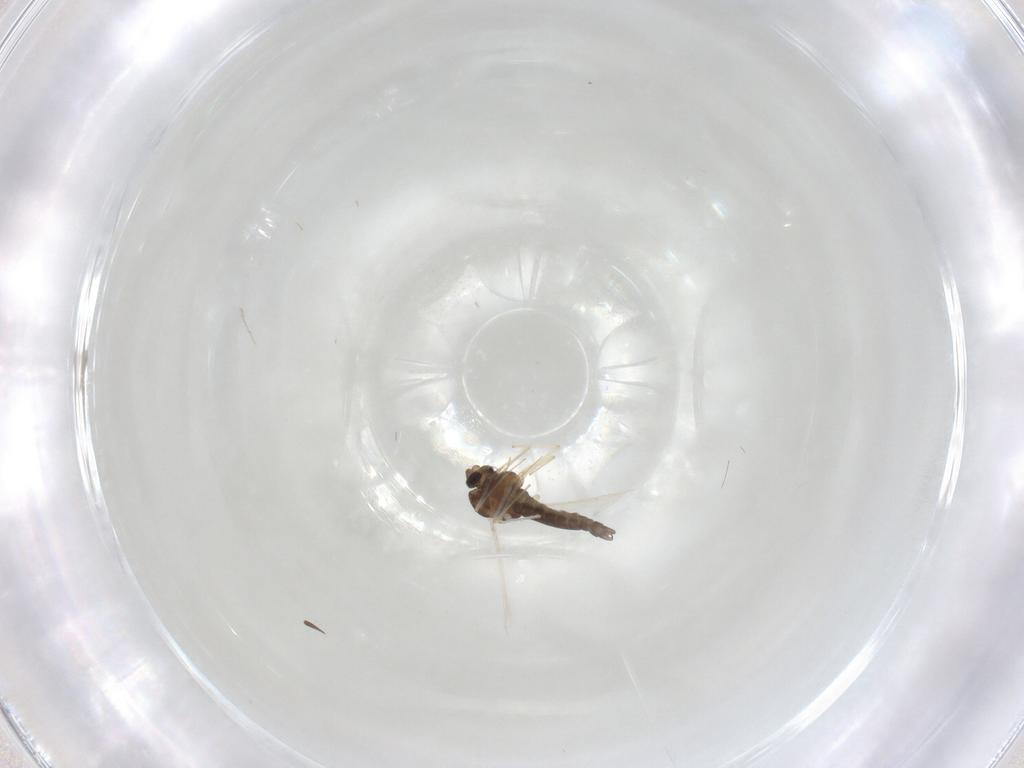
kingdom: Animalia
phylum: Arthropoda
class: Insecta
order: Diptera
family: Chironomidae
